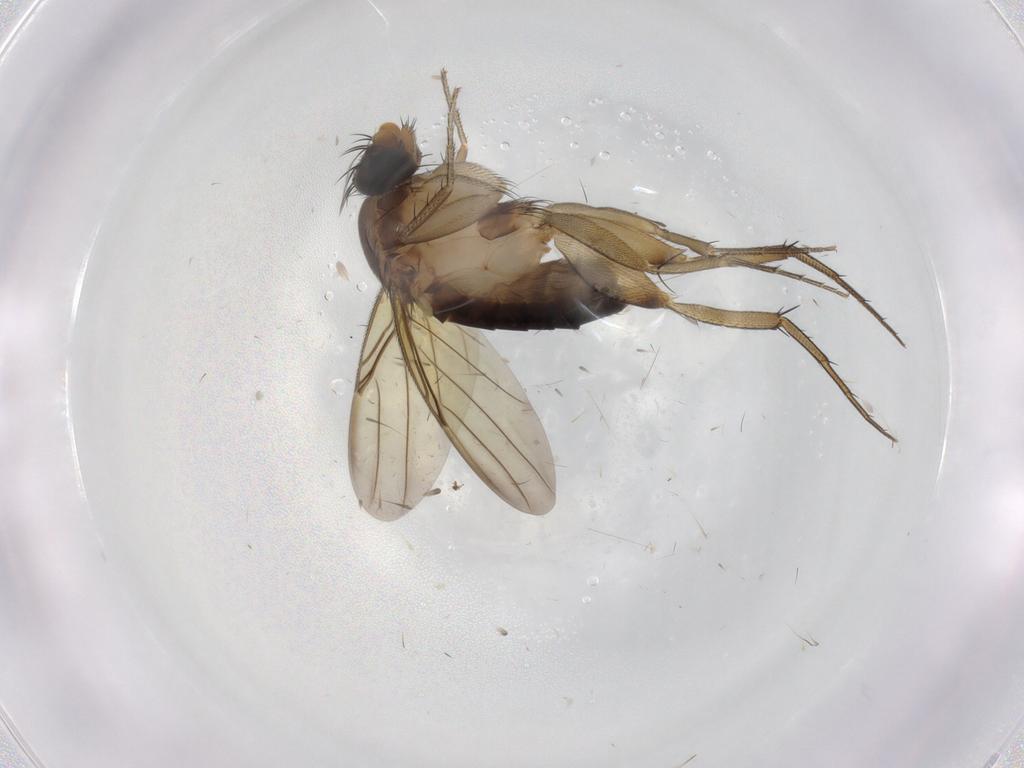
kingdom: Animalia
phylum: Arthropoda
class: Insecta
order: Diptera
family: Phoridae
